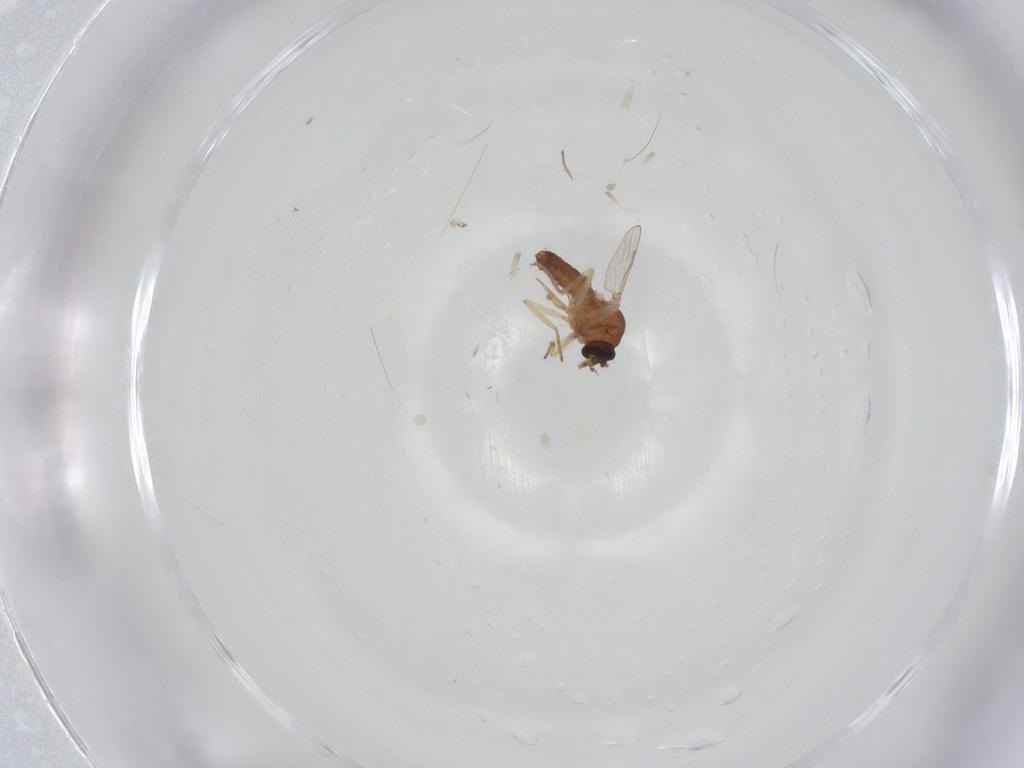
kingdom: Animalia
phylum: Arthropoda
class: Insecta
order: Diptera
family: Ceratopogonidae
